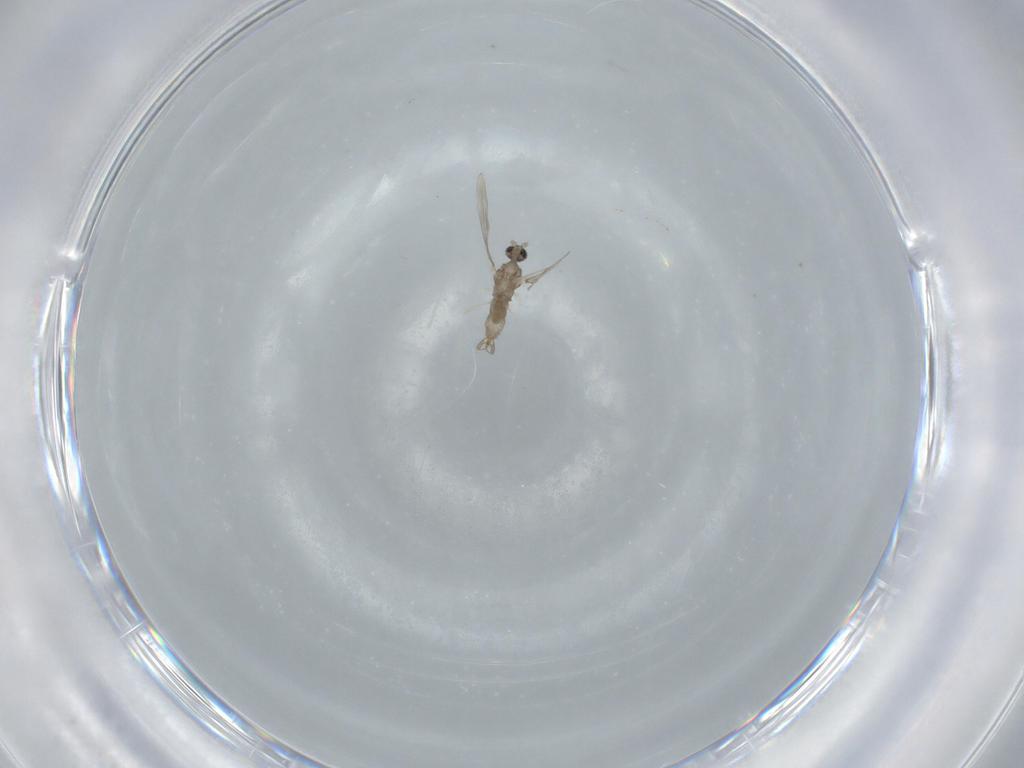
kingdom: Animalia
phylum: Arthropoda
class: Insecta
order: Diptera
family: Cecidomyiidae
